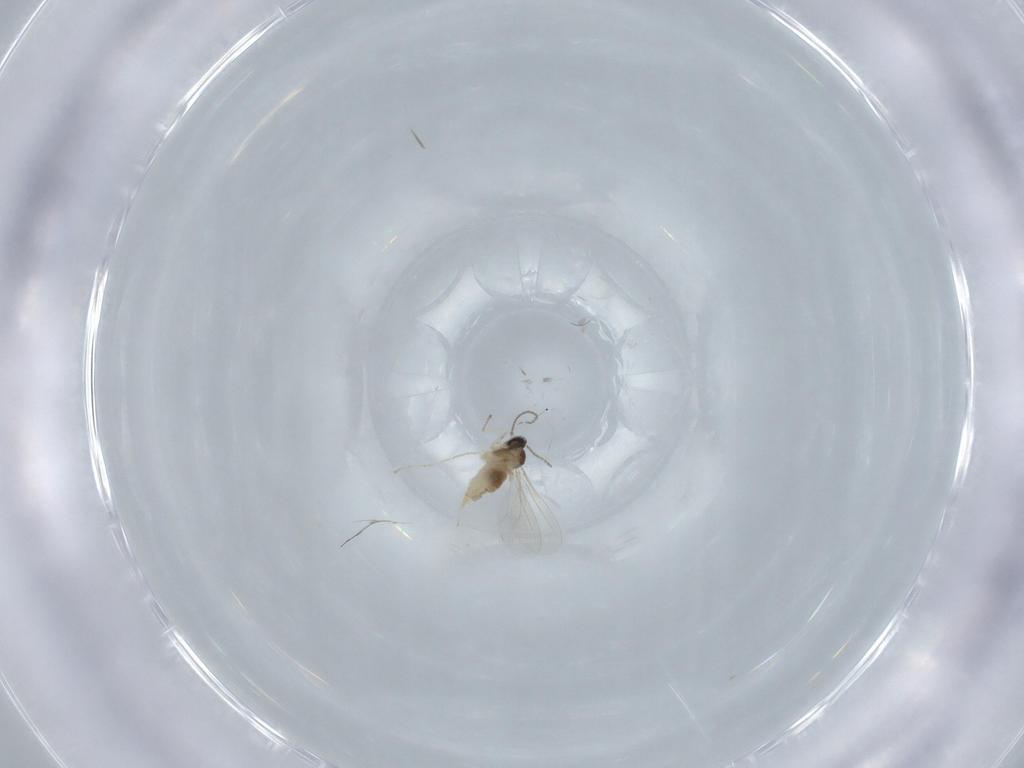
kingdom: Animalia
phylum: Arthropoda
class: Insecta
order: Diptera
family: Cecidomyiidae
